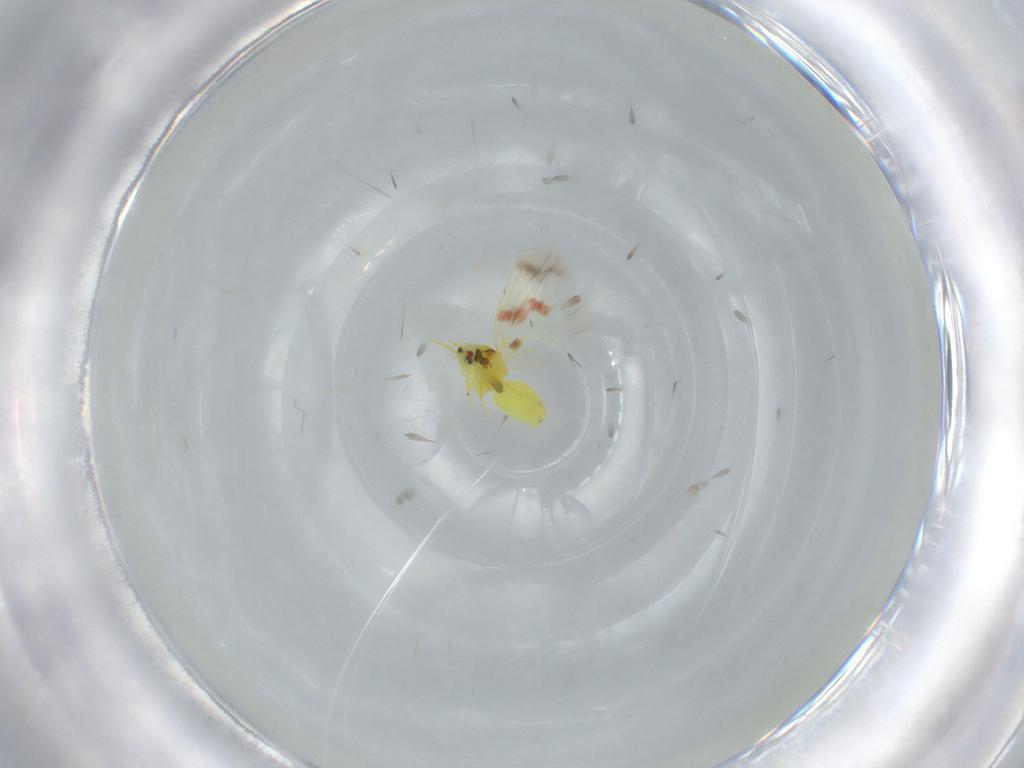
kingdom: Animalia
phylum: Arthropoda
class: Insecta
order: Hemiptera
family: Aleyrodidae
